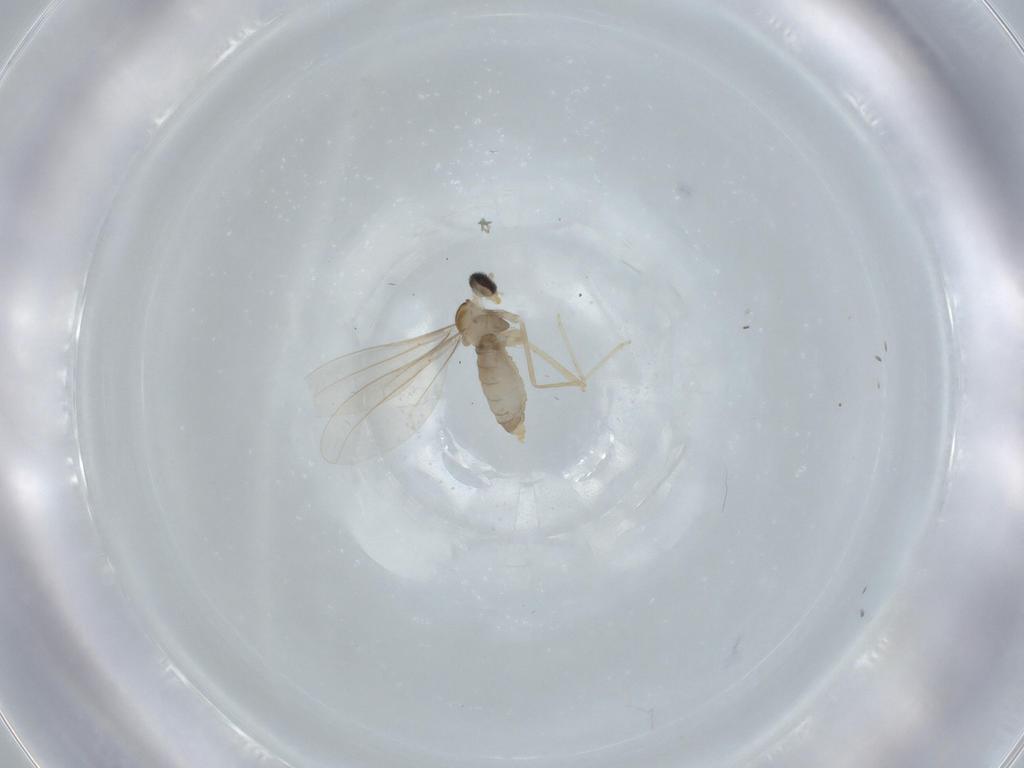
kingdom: Animalia
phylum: Arthropoda
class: Insecta
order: Diptera
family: Cecidomyiidae
